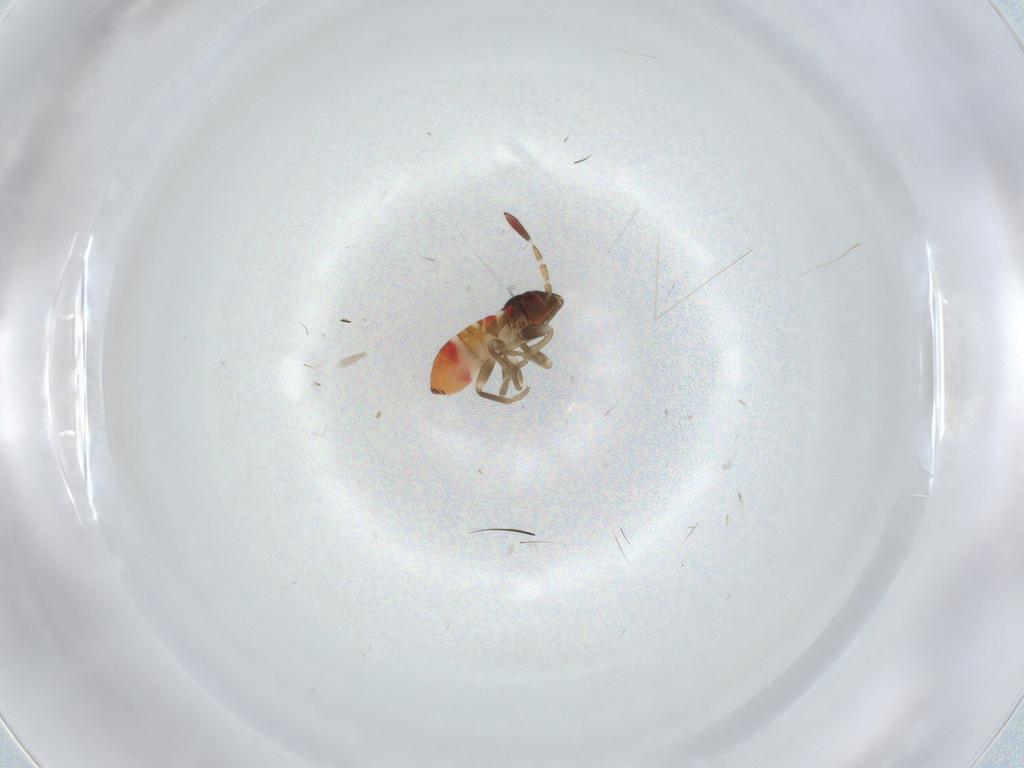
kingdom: Animalia
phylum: Arthropoda
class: Insecta
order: Hemiptera
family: Rhyparochromidae
